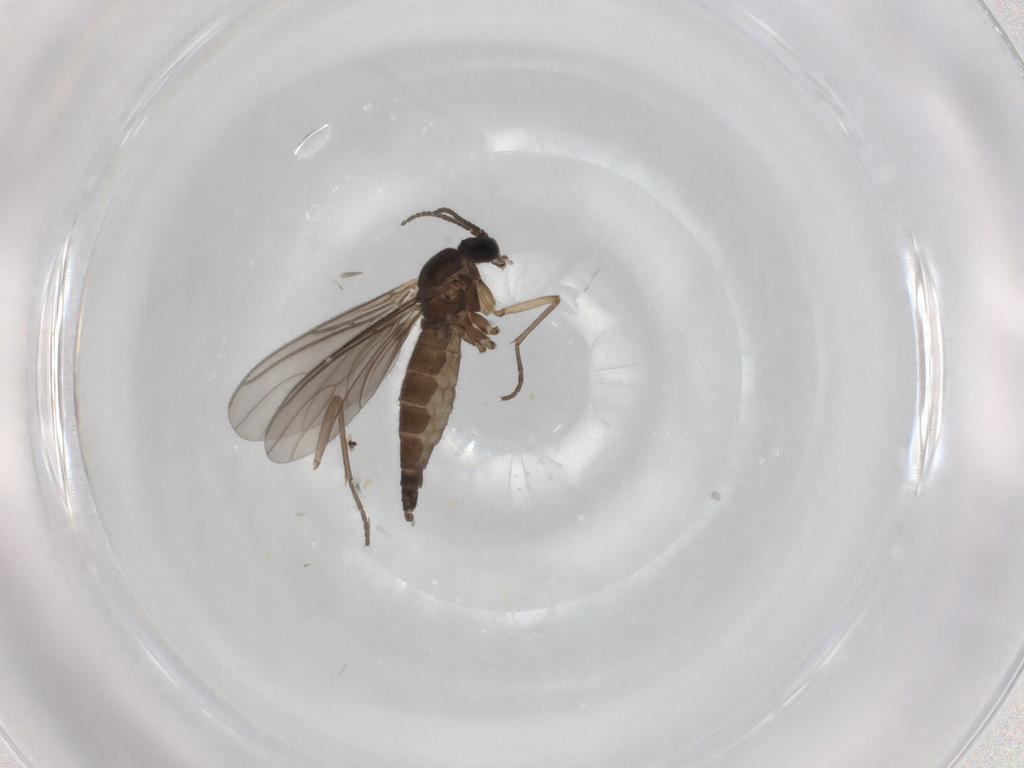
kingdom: Animalia
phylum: Arthropoda
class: Insecta
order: Diptera
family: Sciaridae
